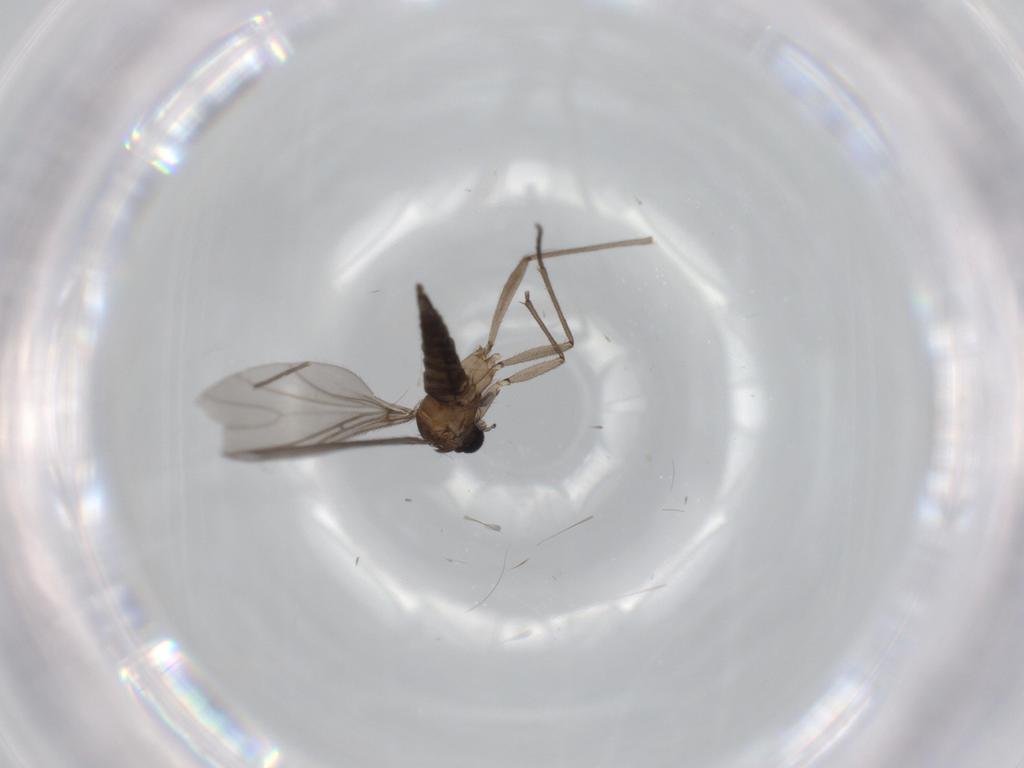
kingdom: Animalia
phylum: Arthropoda
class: Insecta
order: Diptera
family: Sciaridae
